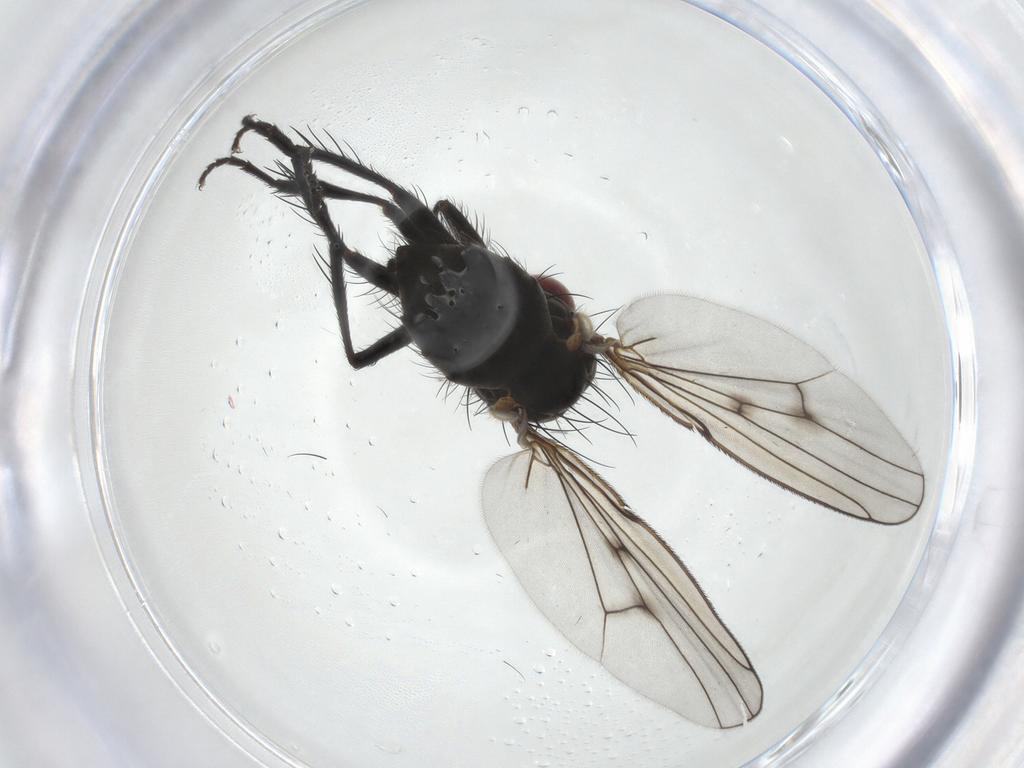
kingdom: Animalia
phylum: Arthropoda
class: Insecta
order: Diptera
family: Muscidae
